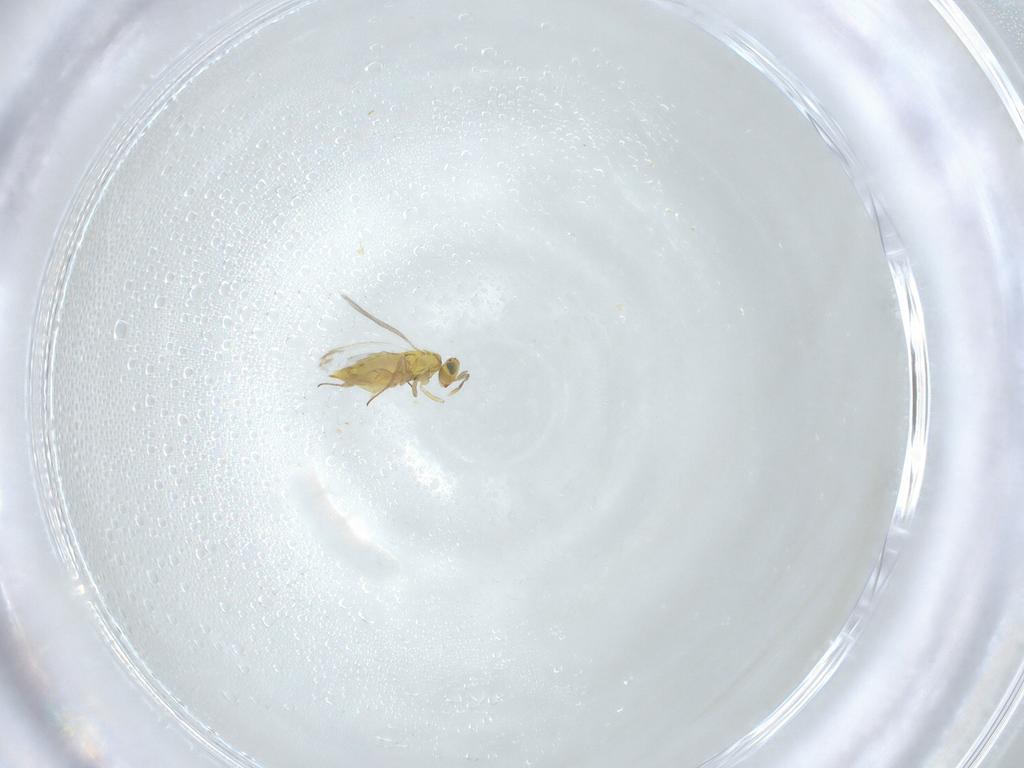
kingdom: Animalia
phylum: Arthropoda
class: Insecta
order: Hymenoptera
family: Aphelinidae
